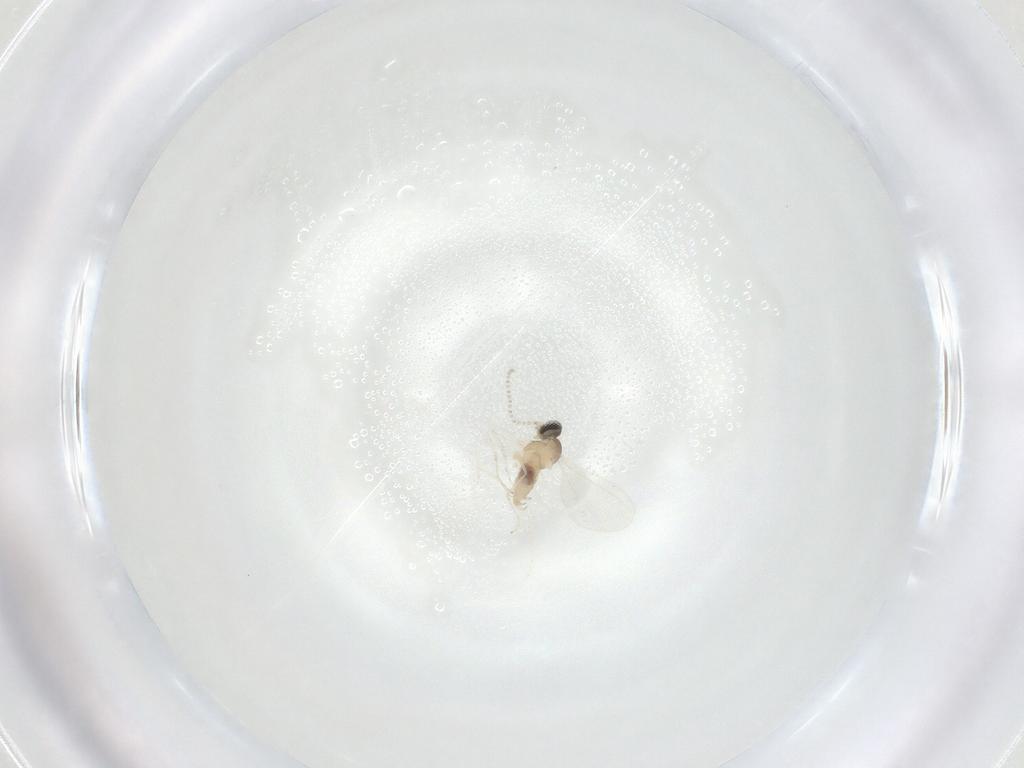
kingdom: Animalia
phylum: Arthropoda
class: Insecta
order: Diptera
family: Cecidomyiidae
